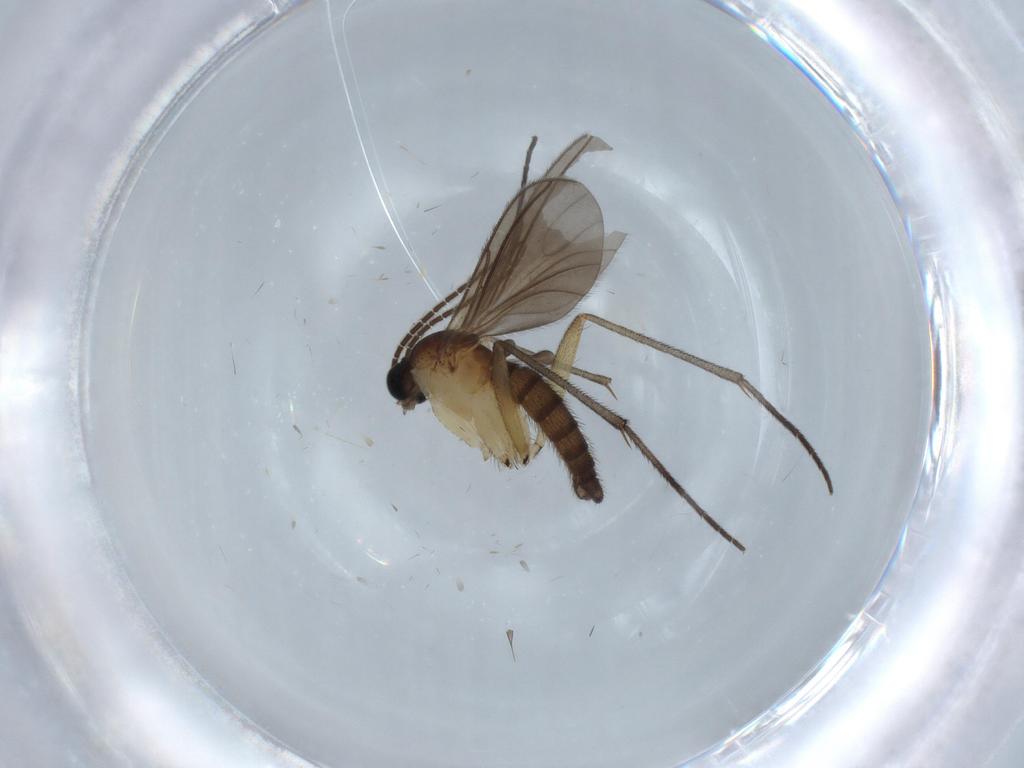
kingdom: Animalia
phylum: Arthropoda
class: Insecta
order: Diptera
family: Sciaridae
